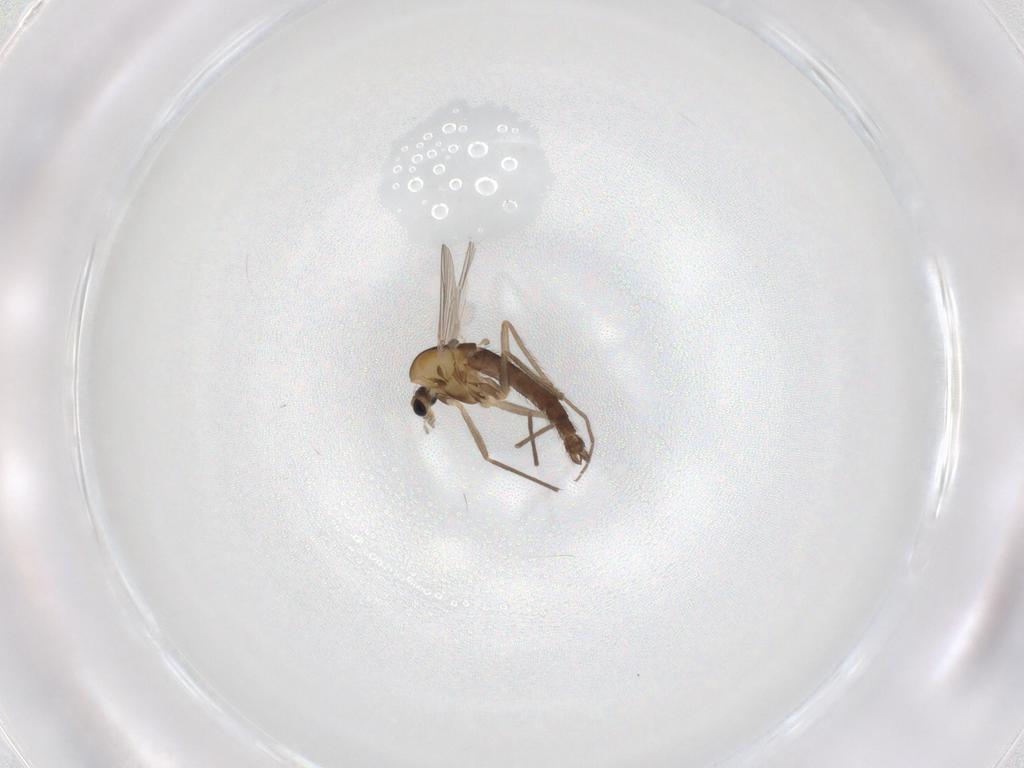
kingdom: Animalia
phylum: Arthropoda
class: Insecta
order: Diptera
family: Chironomidae
